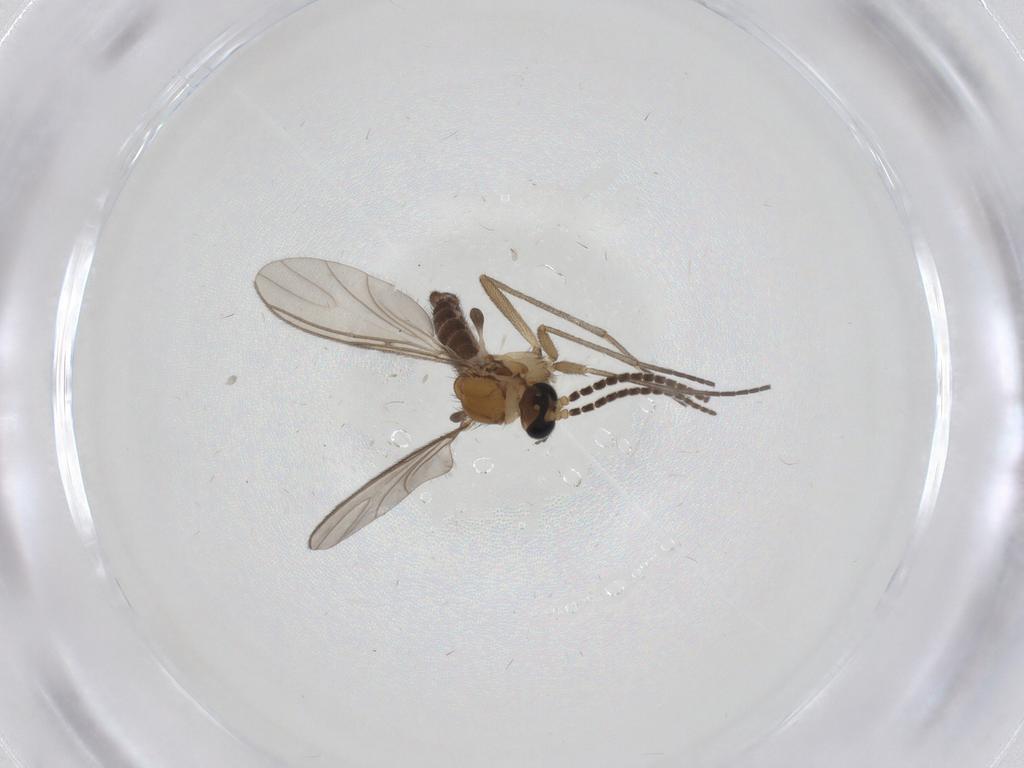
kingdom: Animalia
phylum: Arthropoda
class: Insecta
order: Diptera
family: Sciaridae
